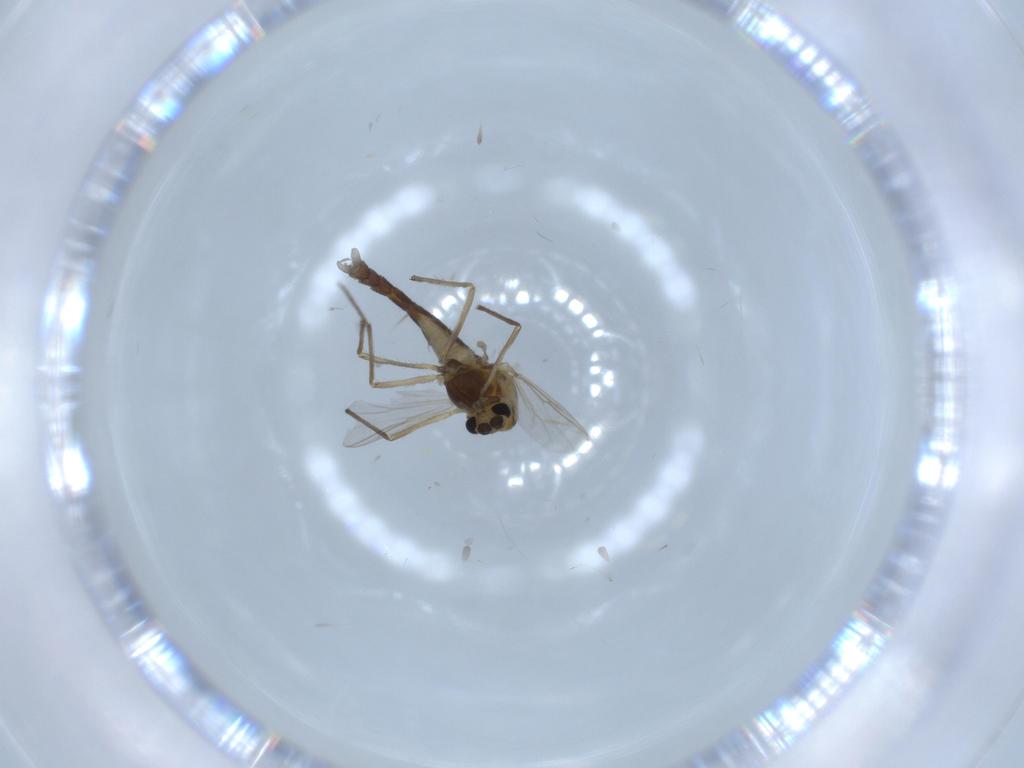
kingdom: Animalia
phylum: Arthropoda
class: Insecta
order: Diptera
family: Chironomidae
